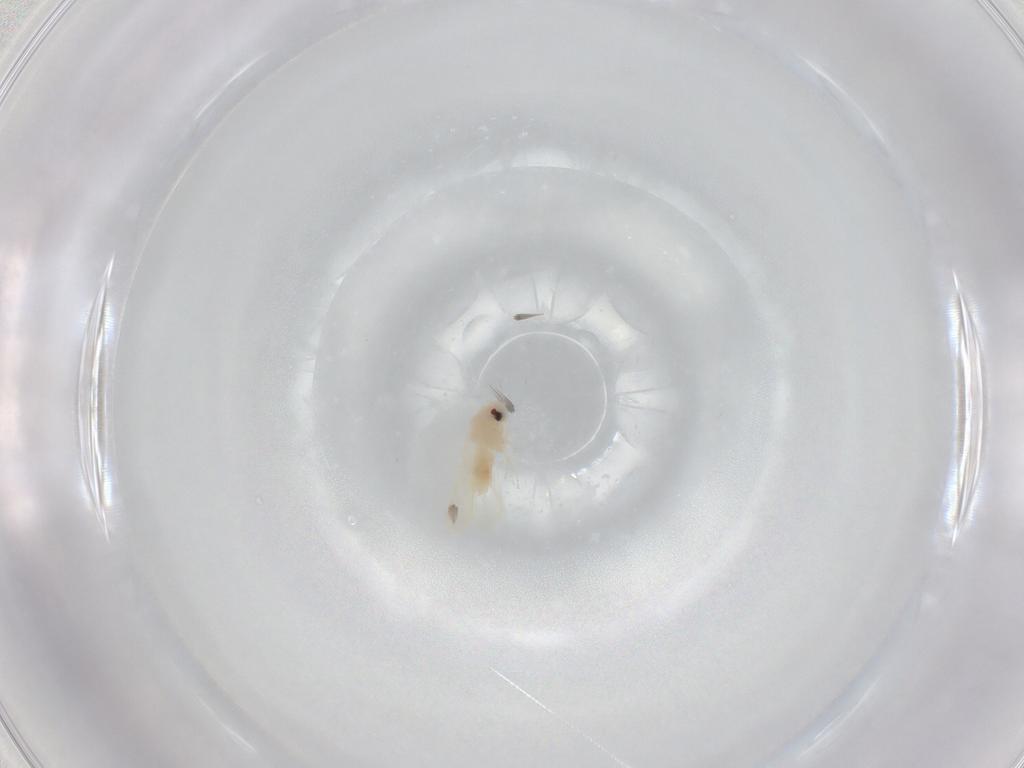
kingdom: Animalia
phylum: Arthropoda
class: Insecta
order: Hemiptera
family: Aleyrodidae
